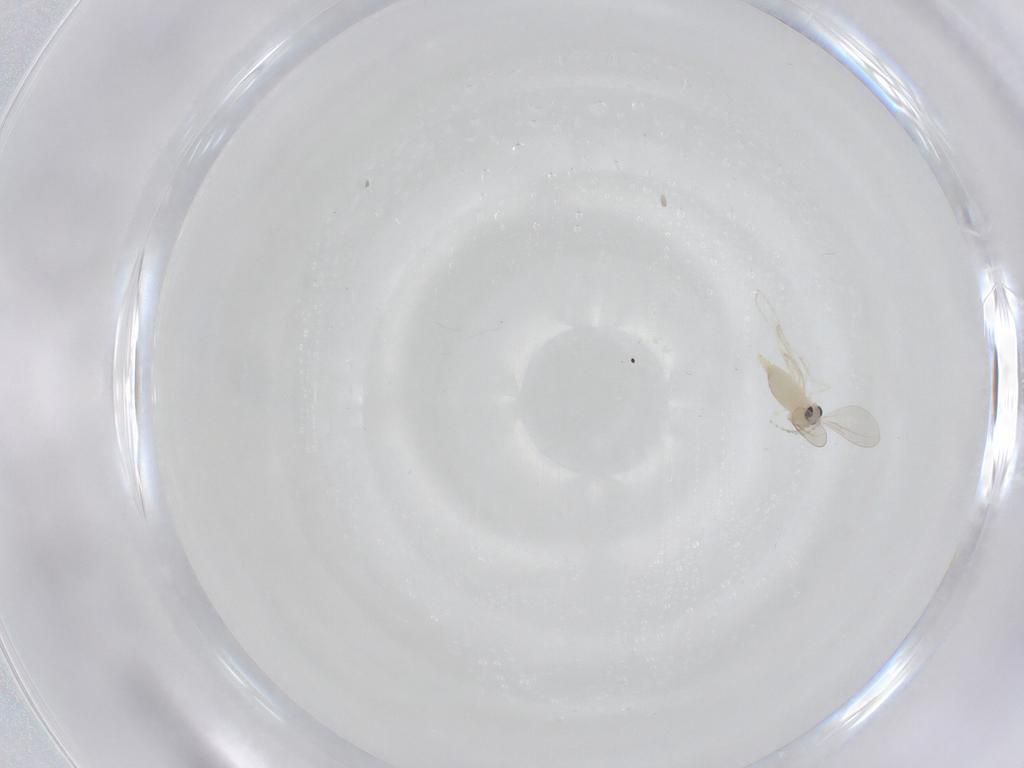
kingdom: Animalia
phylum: Arthropoda
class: Insecta
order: Diptera
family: Cecidomyiidae
